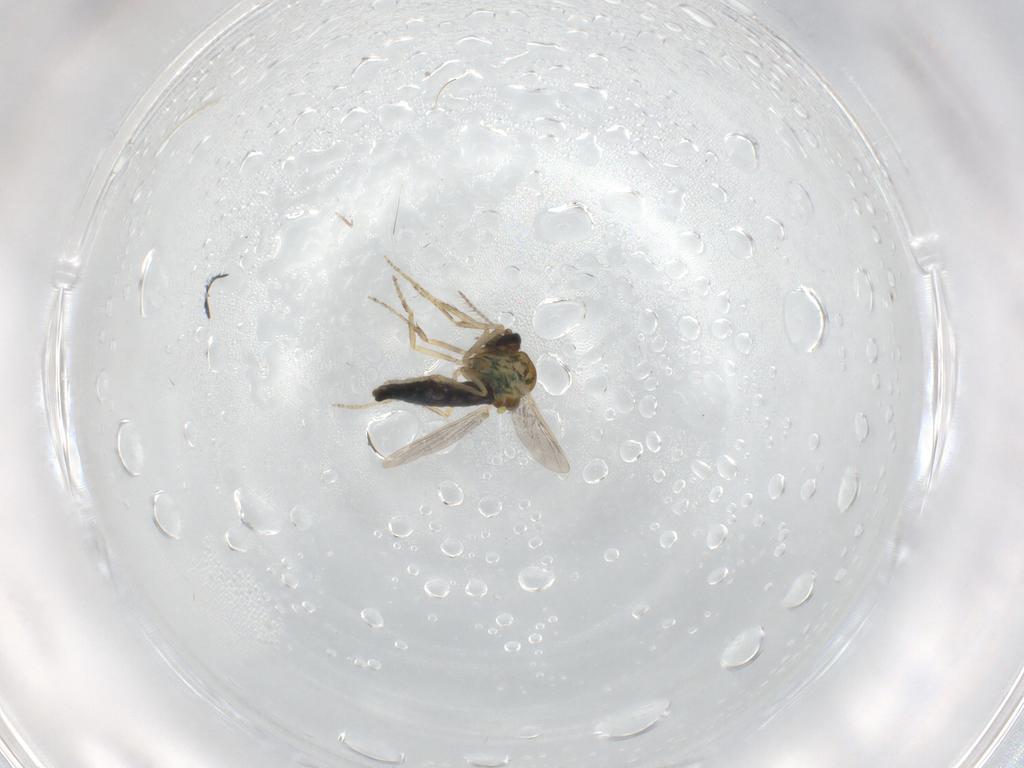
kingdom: Animalia
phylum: Arthropoda
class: Insecta
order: Diptera
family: Ceratopogonidae
